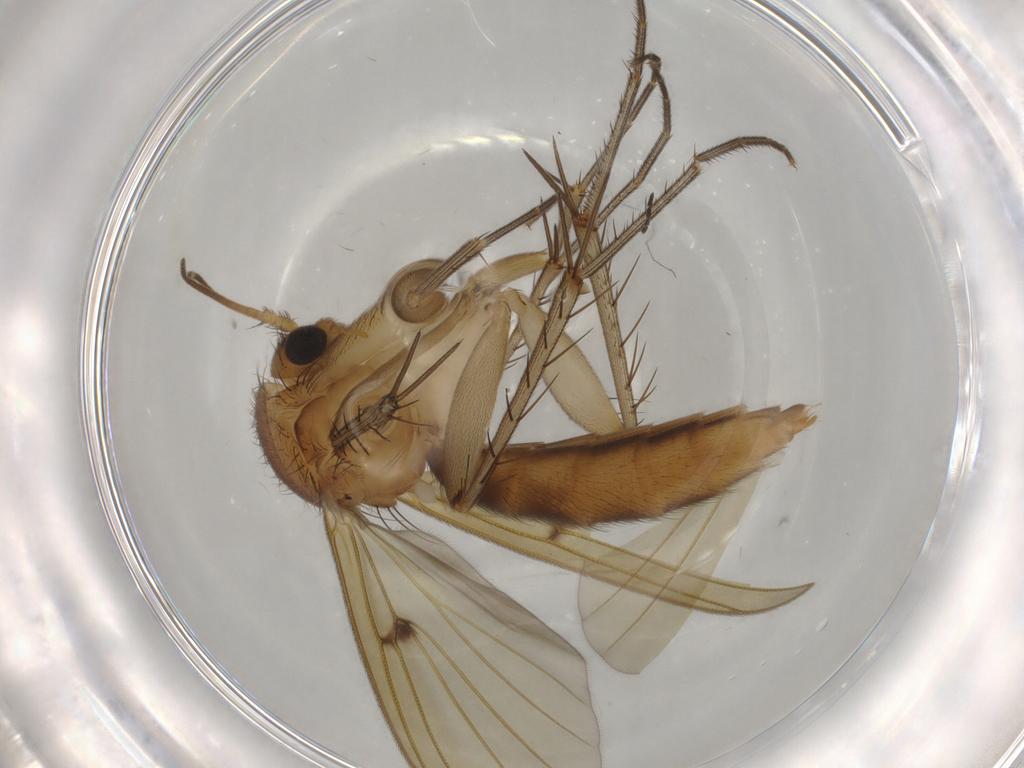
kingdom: Animalia
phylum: Arthropoda
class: Insecta
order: Diptera
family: Mycetophilidae
